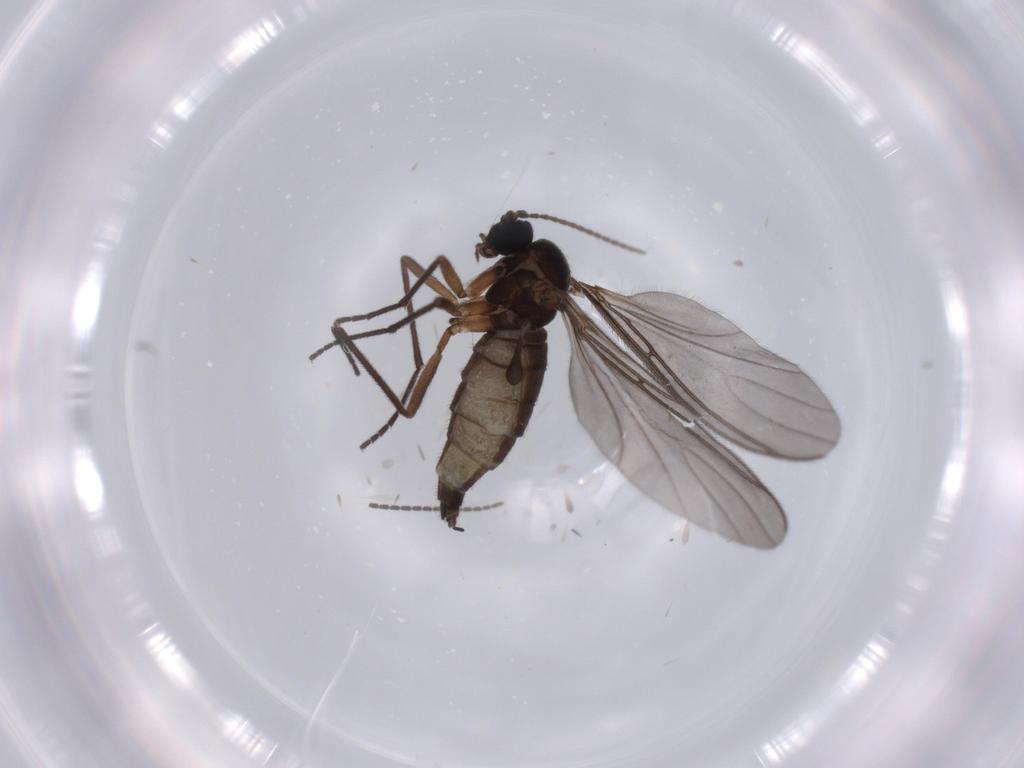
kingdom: Animalia
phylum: Arthropoda
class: Insecta
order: Diptera
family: Sciaridae
